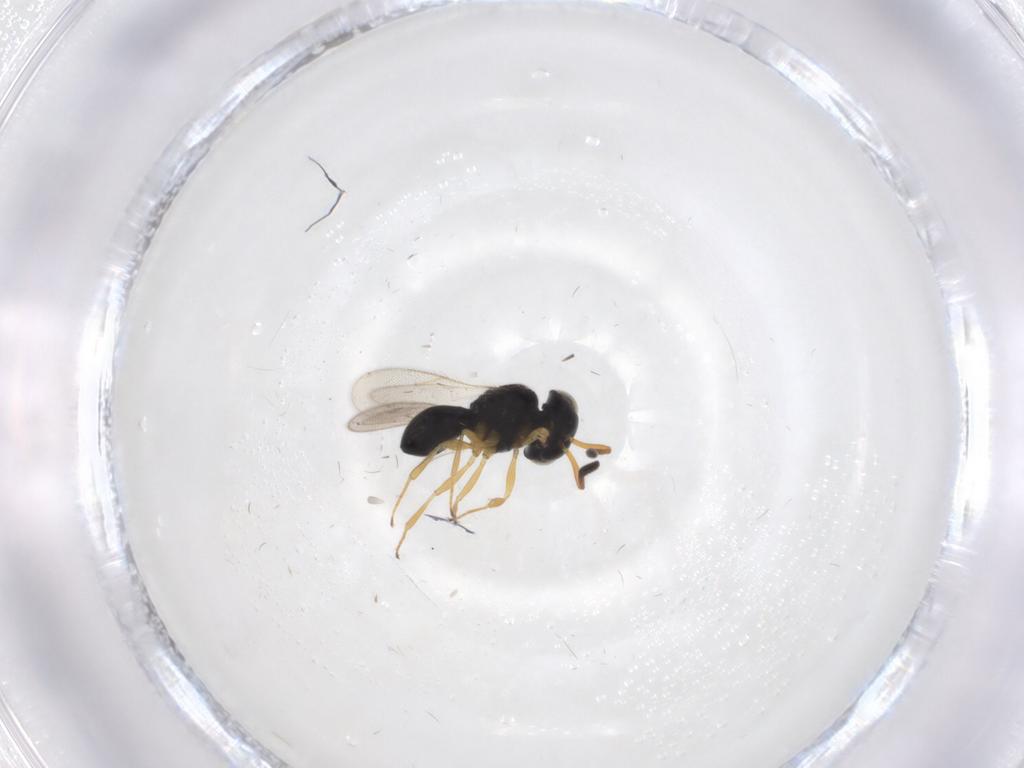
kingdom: Animalia
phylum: Arthropoda
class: Insecta
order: Hymenoptera
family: Scelionidae
